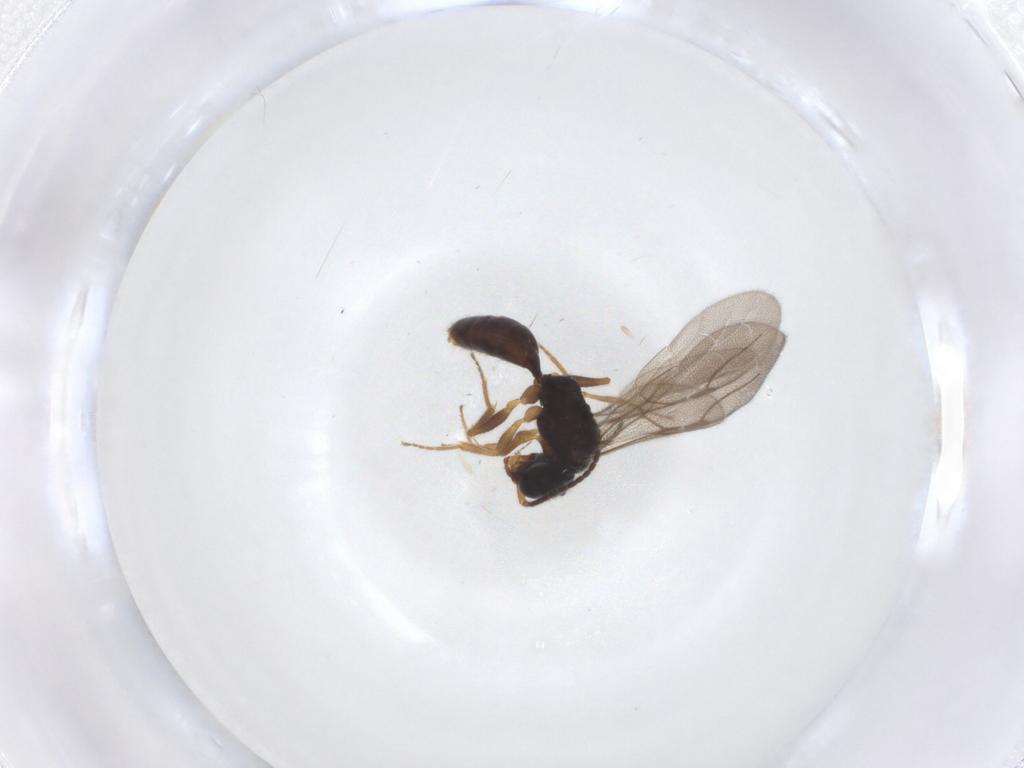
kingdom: Animalia
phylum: Arthropoda
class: Insecta
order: Hymenoptera
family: Bethylidae
